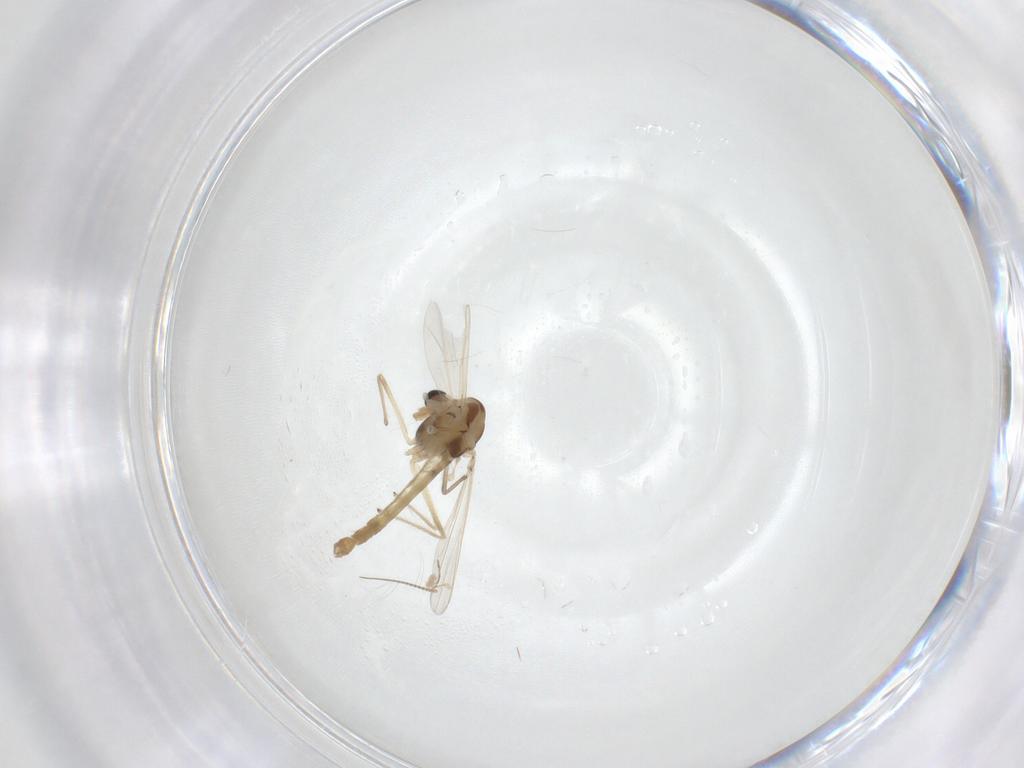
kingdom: Animalia
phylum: Arthropoda
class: Insecta
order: Diptera
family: Chironomidae
